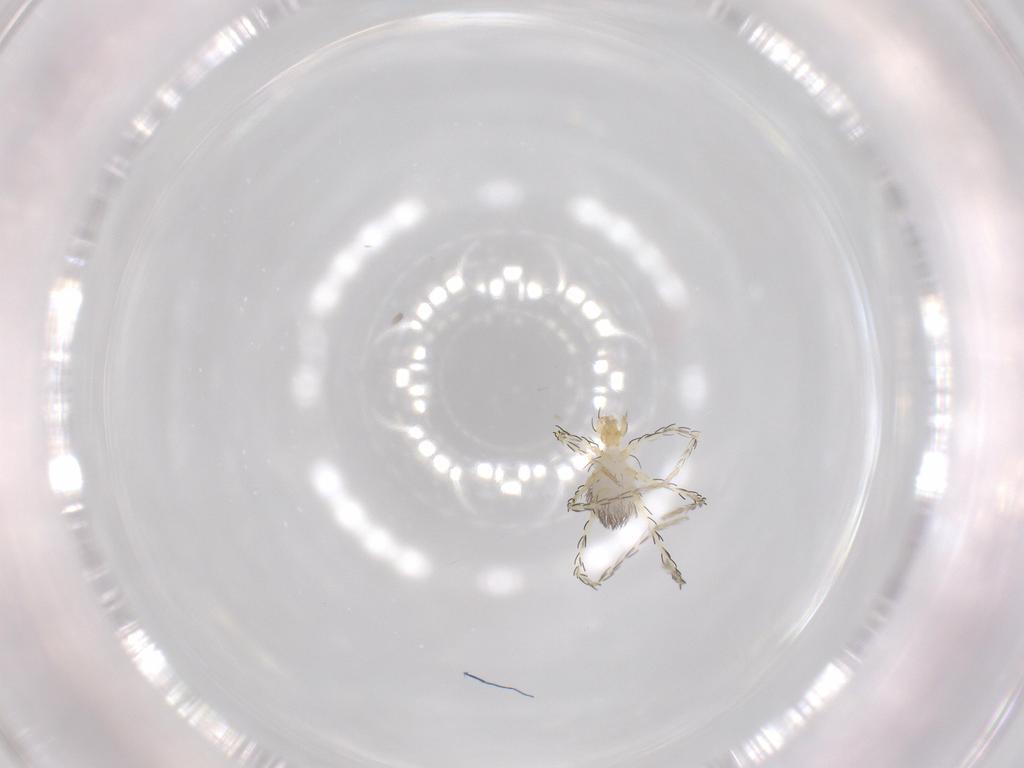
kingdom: Animalia
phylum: Arthropoda
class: Arachnida
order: Trombidiformes
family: Erythraeidae
